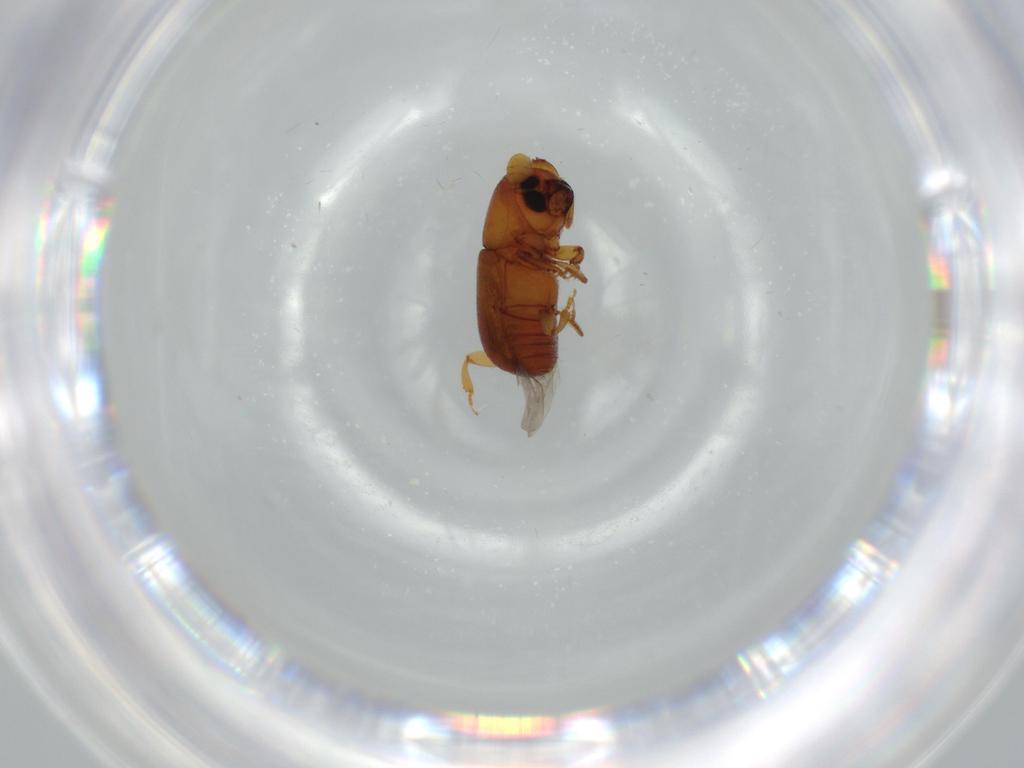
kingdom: Animalia
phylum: Arthropoda
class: Insecta
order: Coleoptera
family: Curculionidae
